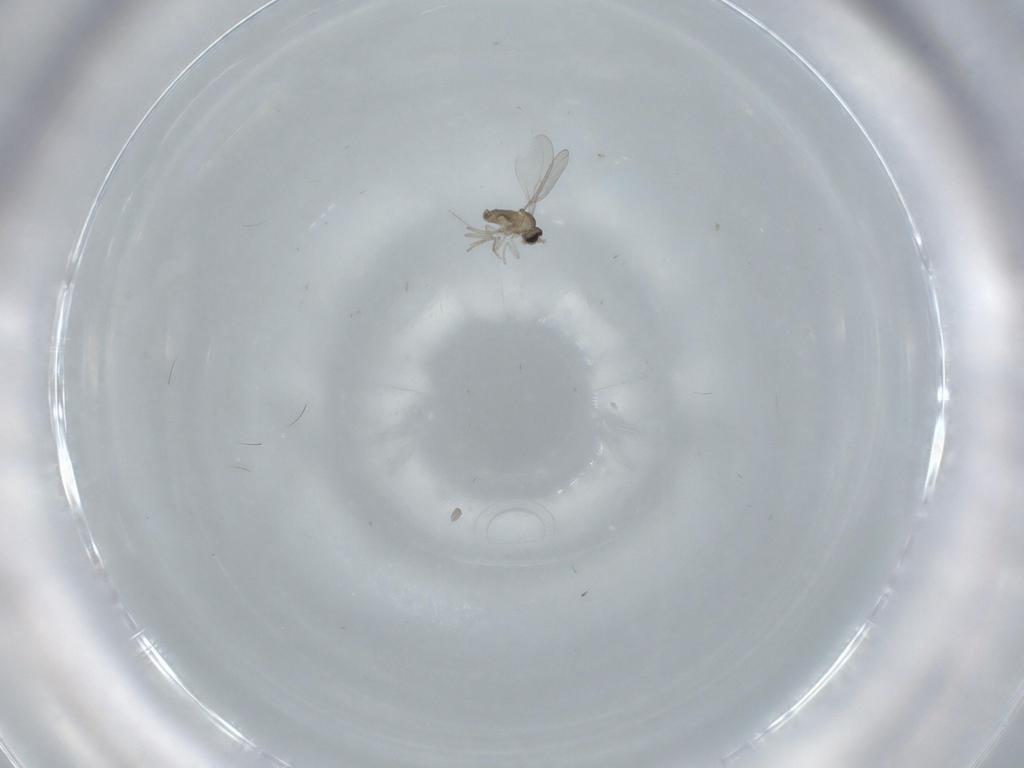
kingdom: Animalia
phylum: Arthropoda
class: Insecta
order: Diptera
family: Cecidomyiidae
